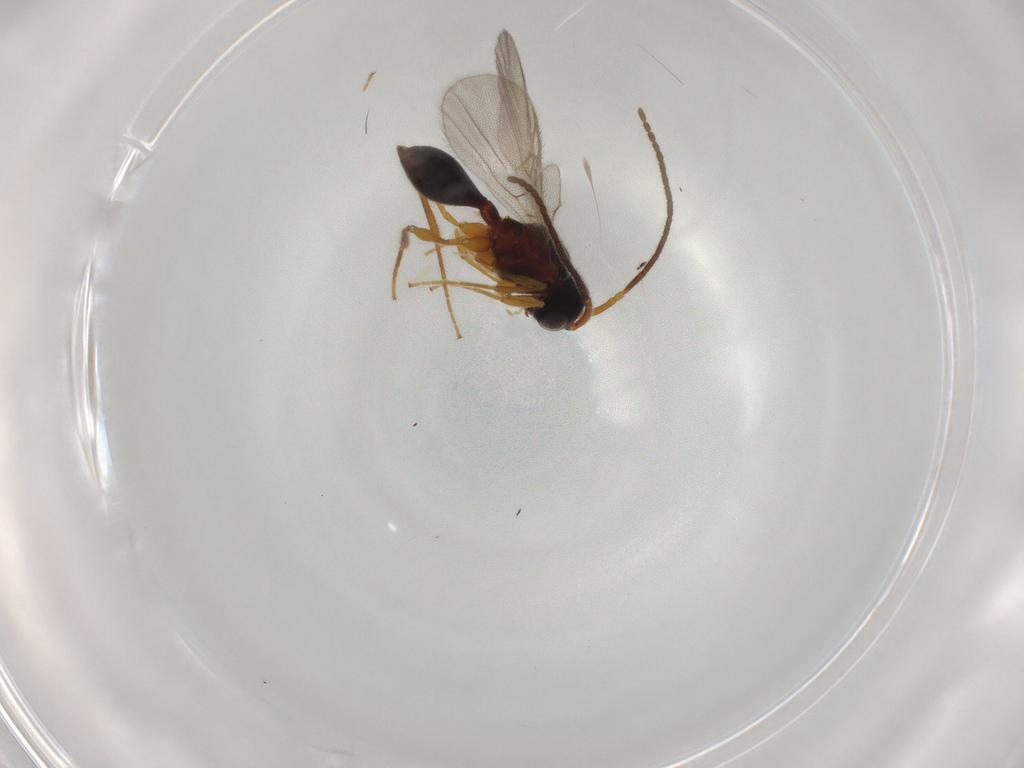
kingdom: Animalia
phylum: Arthropoda
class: Insecta
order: Hymenoptera
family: Diapriidae
